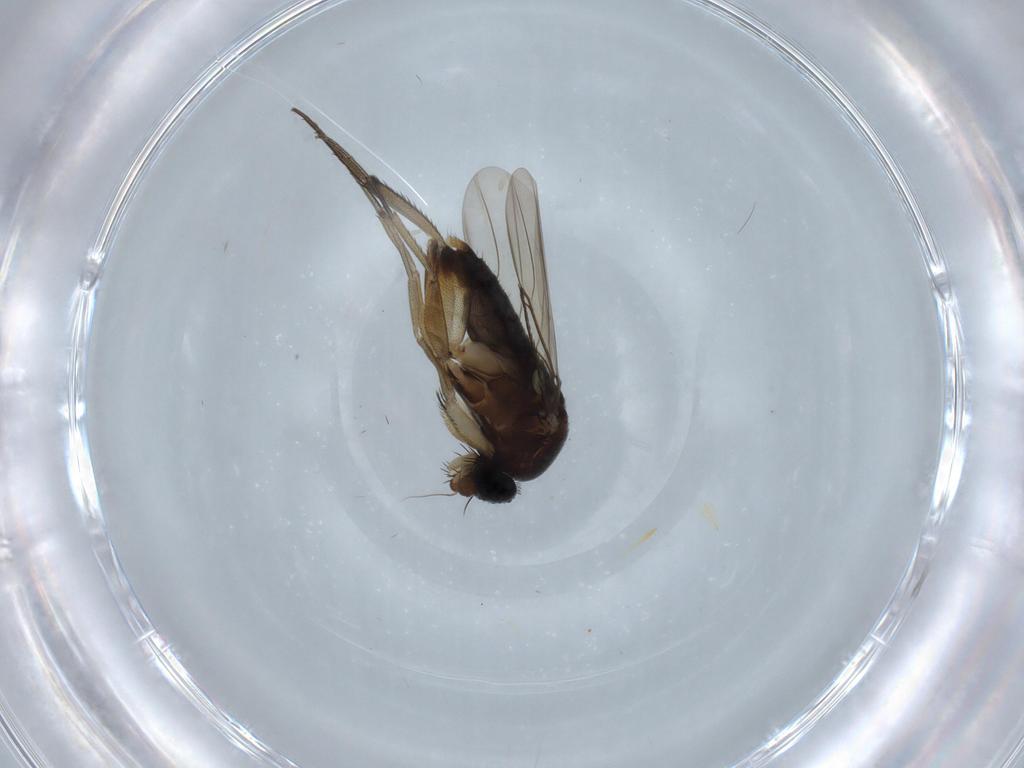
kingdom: Animalia
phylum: Arthropoda
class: Insecta
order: Diptera
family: Phoridae
